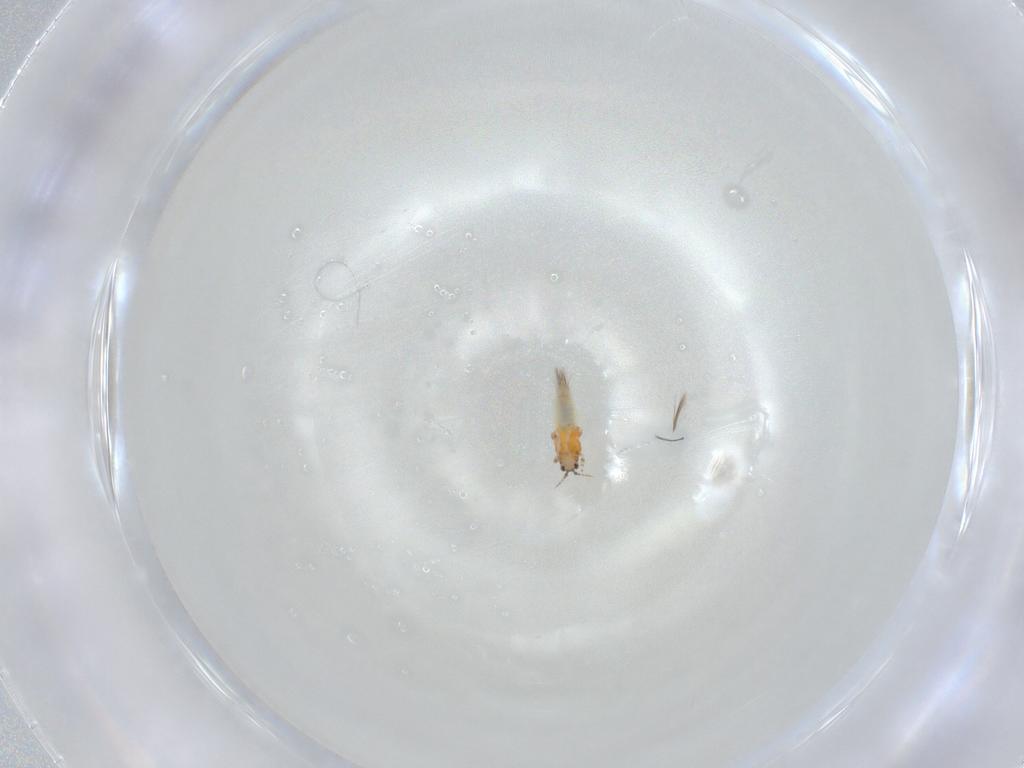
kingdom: Animalia
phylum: Arthropoda
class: Insecta
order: Thysanoptera
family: Thripidae
